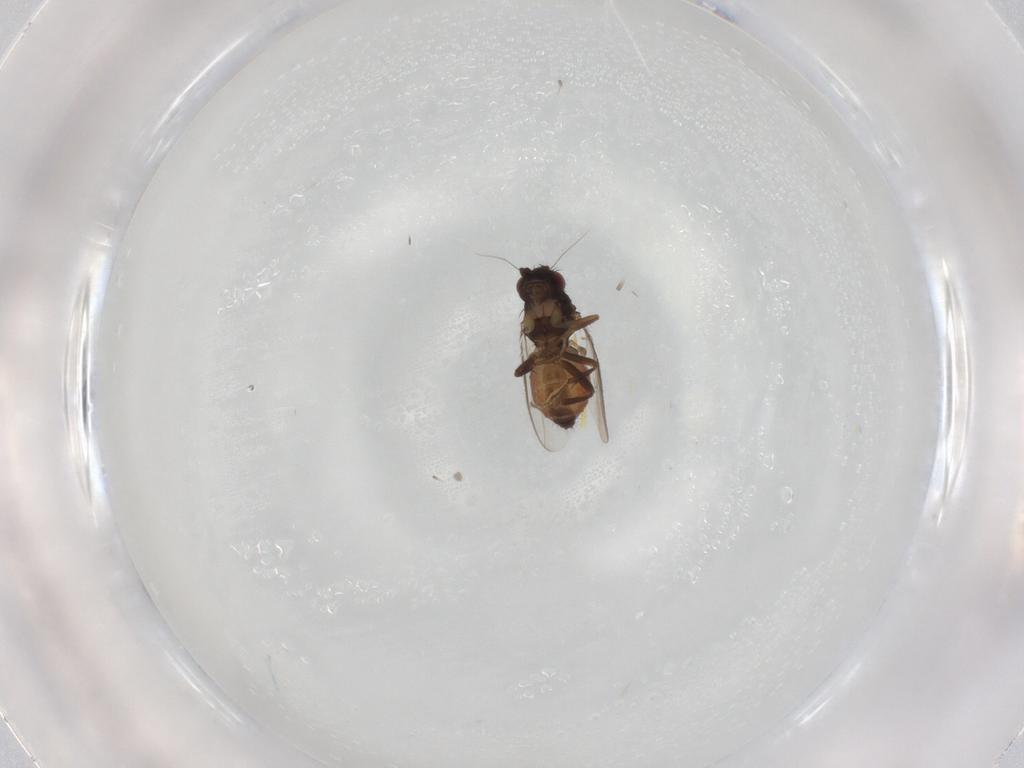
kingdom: Animalia
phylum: Arthropoda
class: Insecta
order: Diptera
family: Sphaeroceridae
